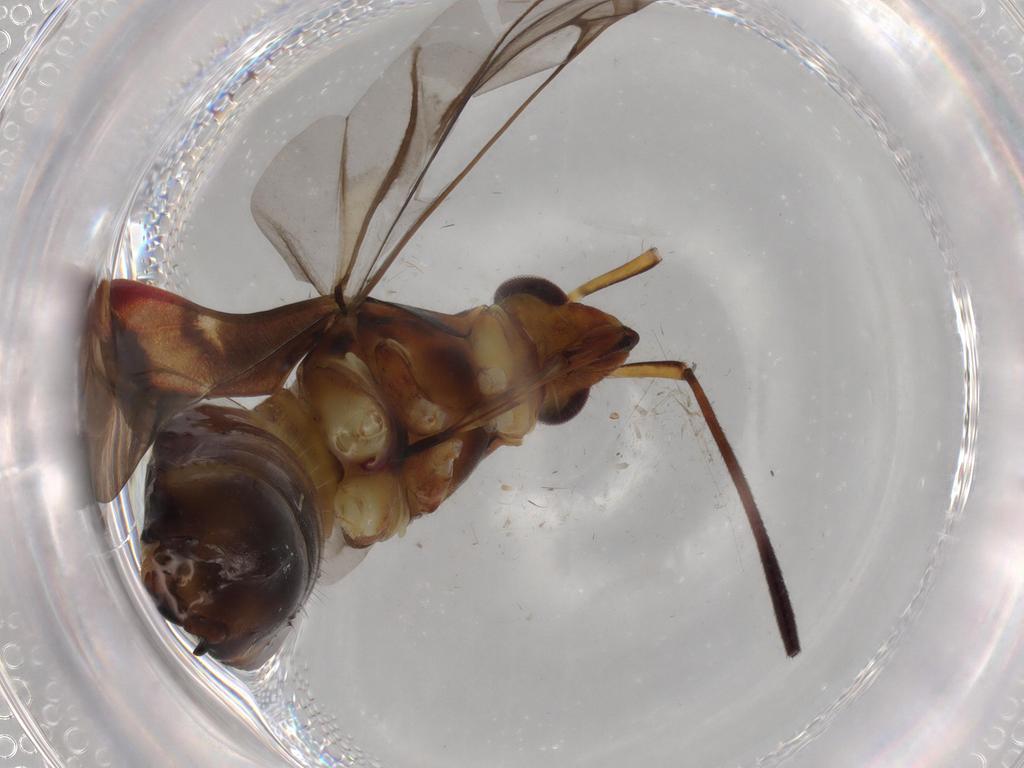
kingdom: Animalia
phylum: Arthropoda
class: Insecta
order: Hemiptera
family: Miridae
